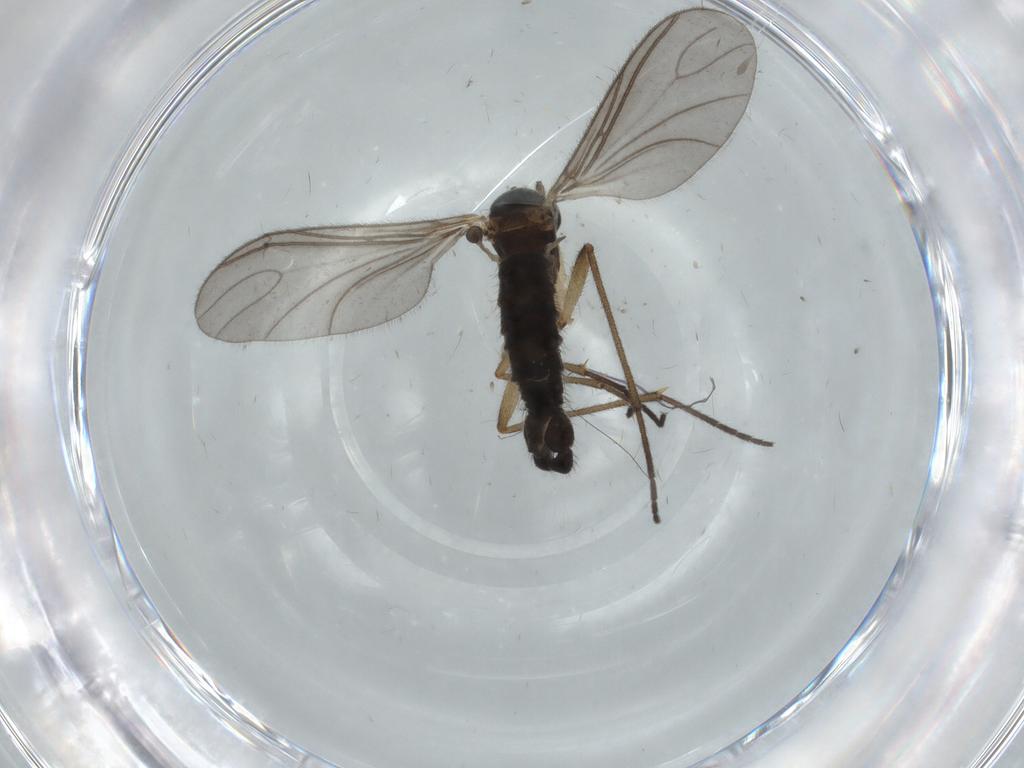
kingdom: Animalia
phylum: Arthropoda
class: Insecta
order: Diptera
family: Sciaridae
